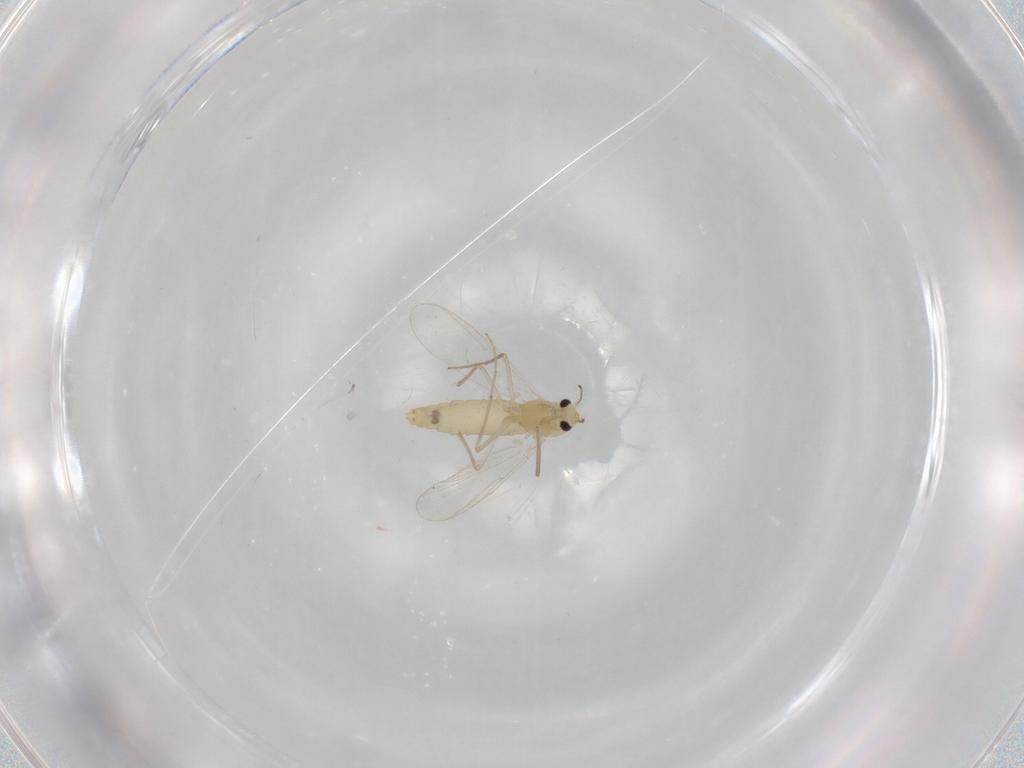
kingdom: Animalia
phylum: Arthropoda
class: Insecta
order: Diptera
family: Chironomidae
